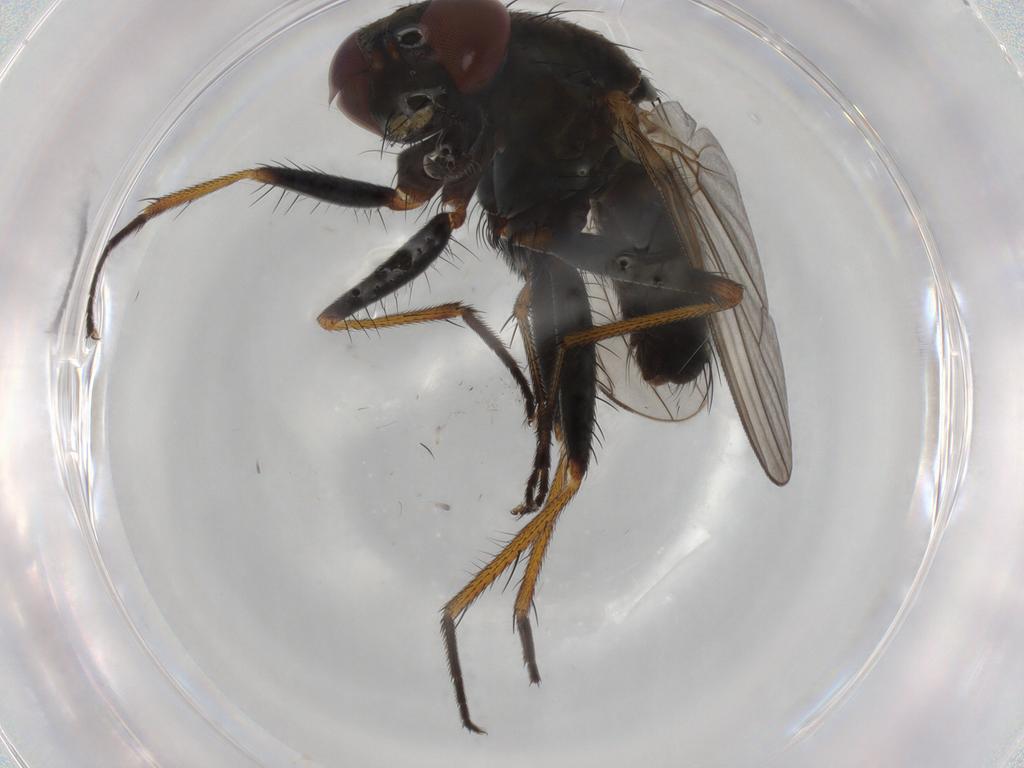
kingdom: Animalia
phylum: Arthropoda
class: Insecta
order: Diptera
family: Muscidae
